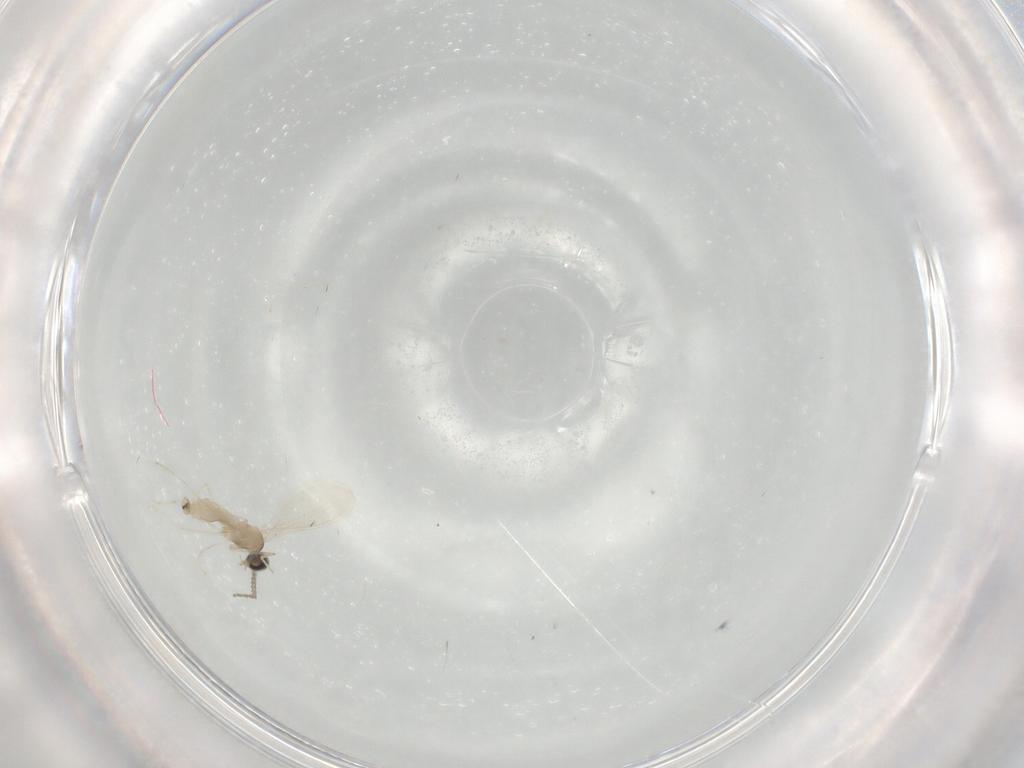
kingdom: Animalia
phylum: Arthropoda
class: Insecta
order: Diptera
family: Cecidomyiidae
